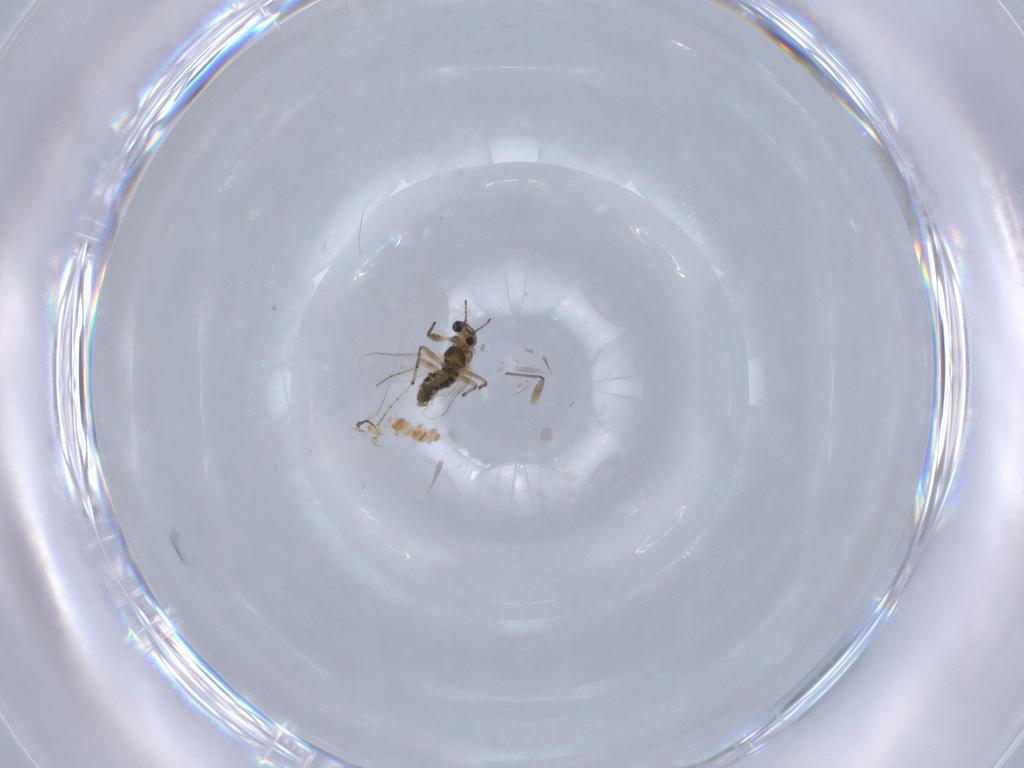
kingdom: Animalia
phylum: Arthropoda
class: Insecta
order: Diptera
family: Chironomidae
